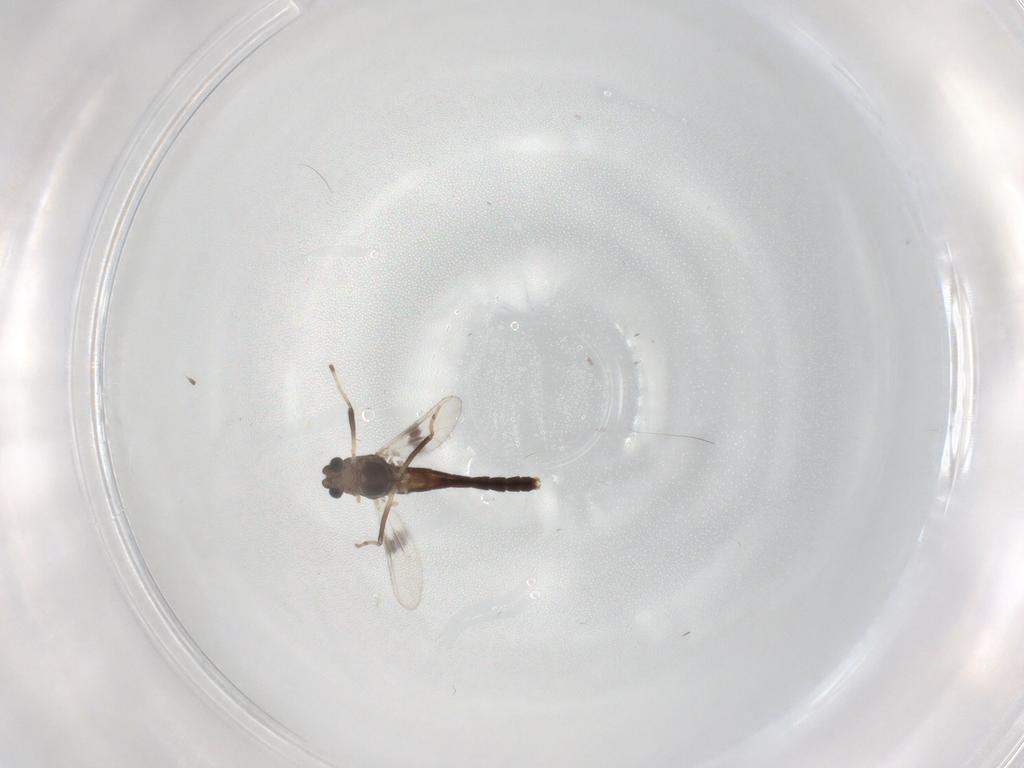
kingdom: Animalia
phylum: Arthropoda
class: Insecta
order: Diptera
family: Chironomidae
